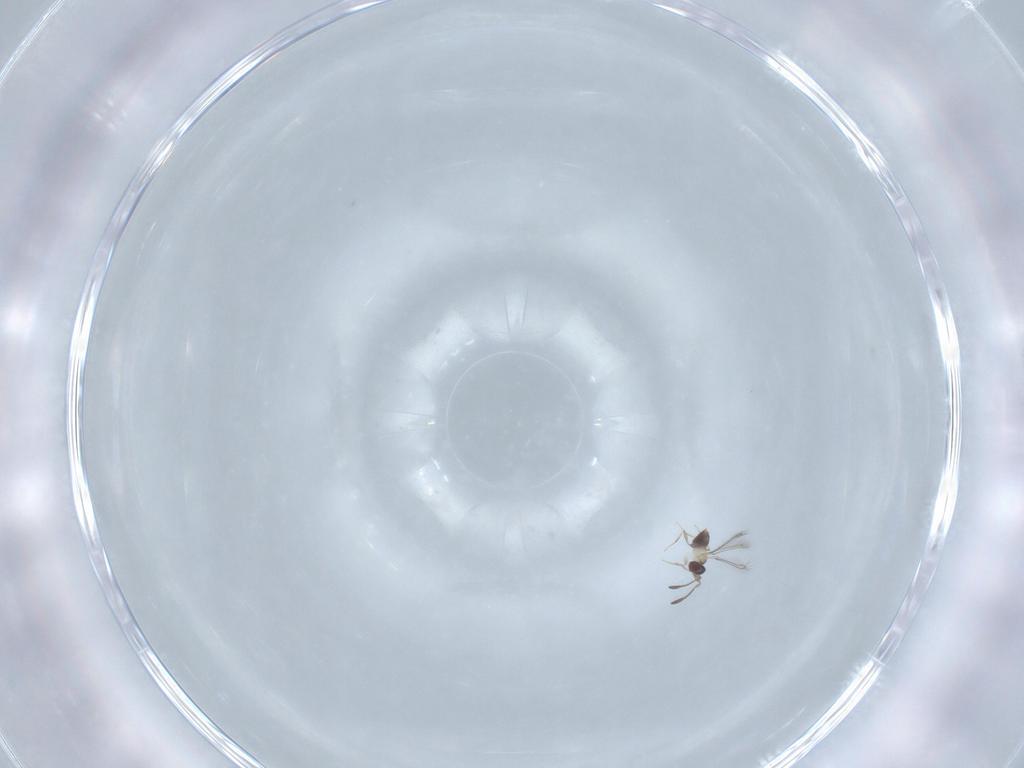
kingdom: Animalia
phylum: Arthropoda
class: Insecta
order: Hymenoptera
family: Mymaridae
